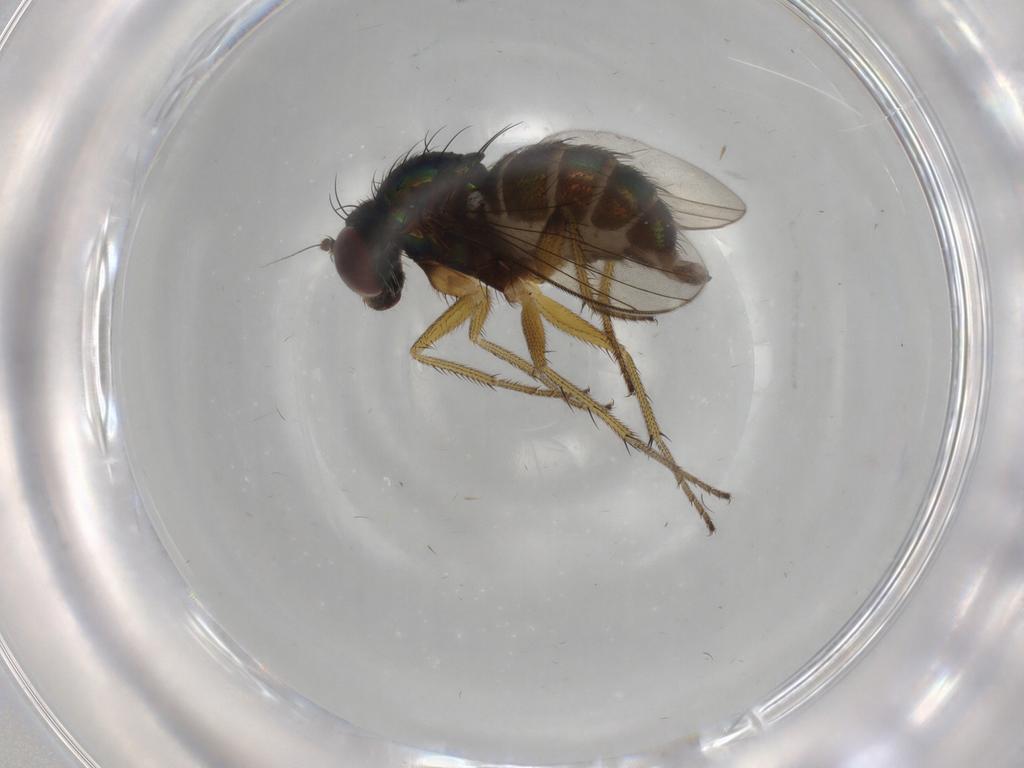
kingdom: Animalia
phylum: Arthropoda
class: Insecta
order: Diptera
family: Dolichopodidae
